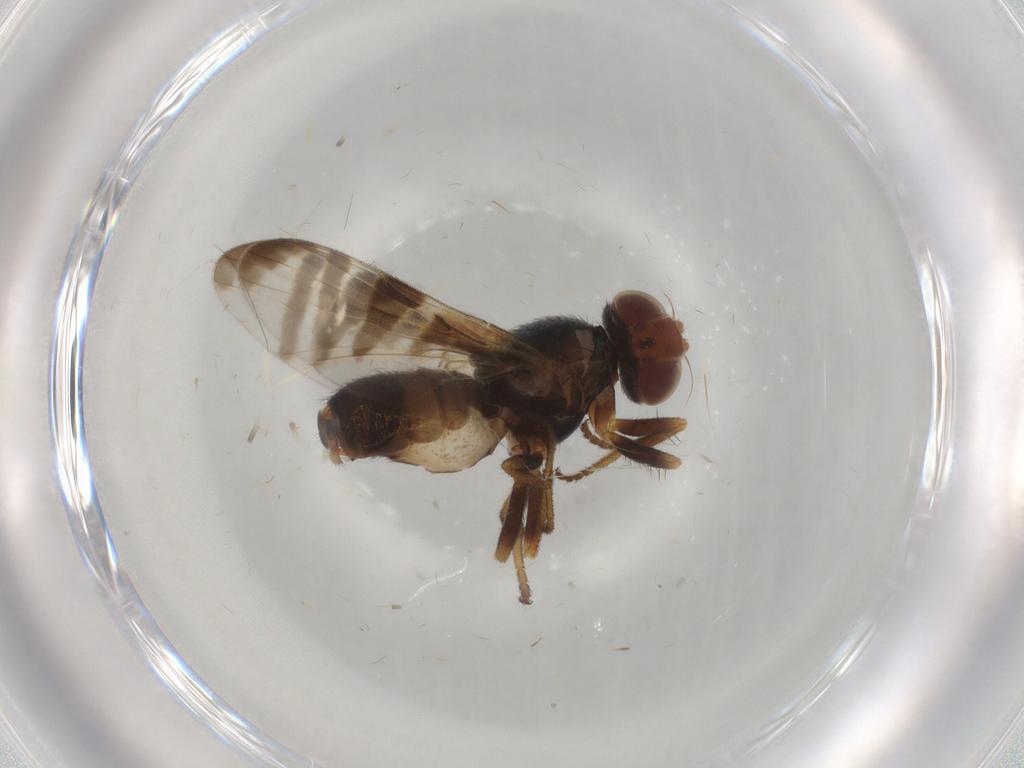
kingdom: Animalia
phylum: Arthropoda
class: Insecta
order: Diptera
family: Platystomatidae
